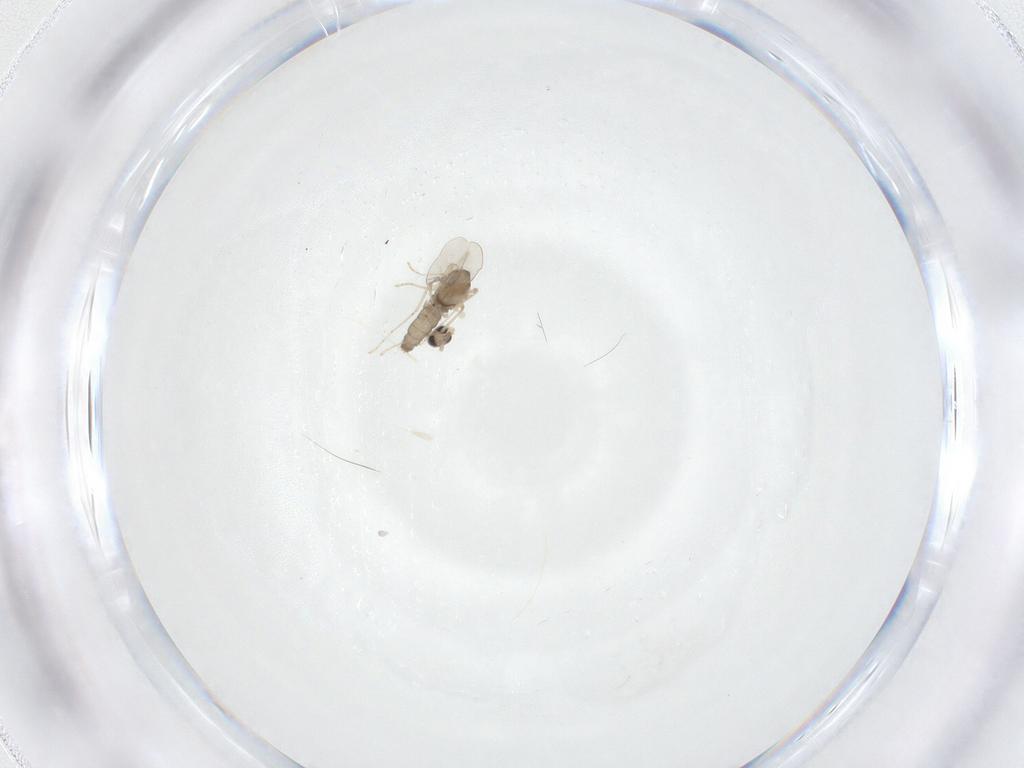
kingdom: Animalia
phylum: Arthropoda
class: Insecta
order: Diptera
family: Cecidomyiidae
